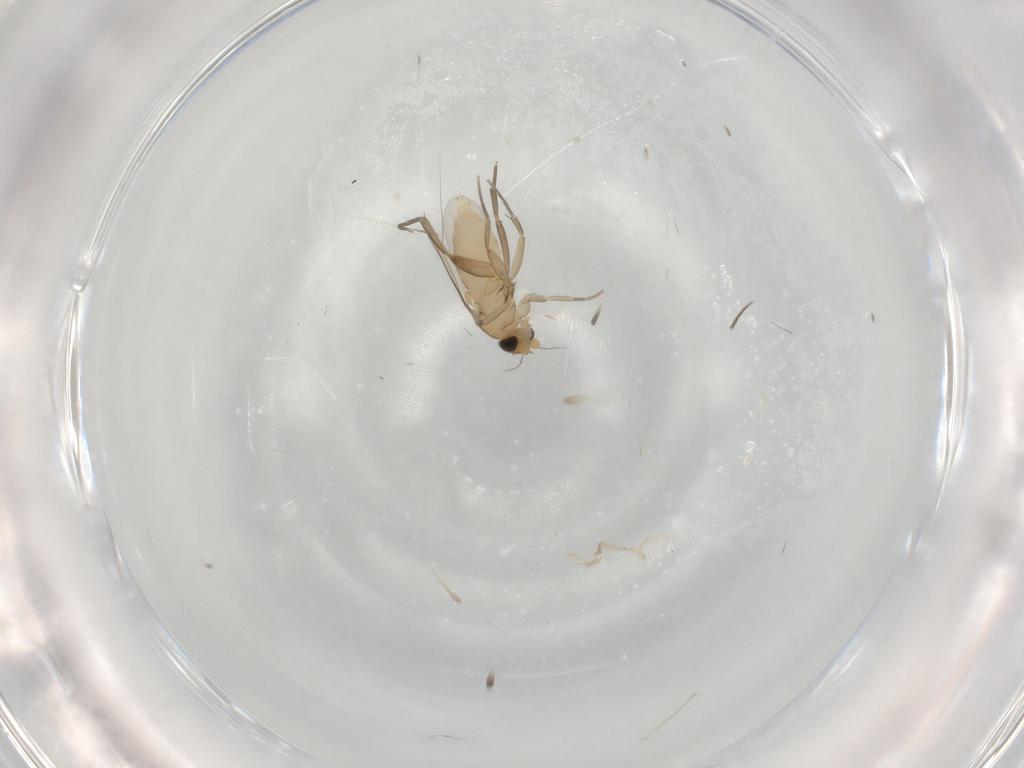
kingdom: Animalia
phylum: Arthropoda
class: Insecta
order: Diptera
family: Phoridae
